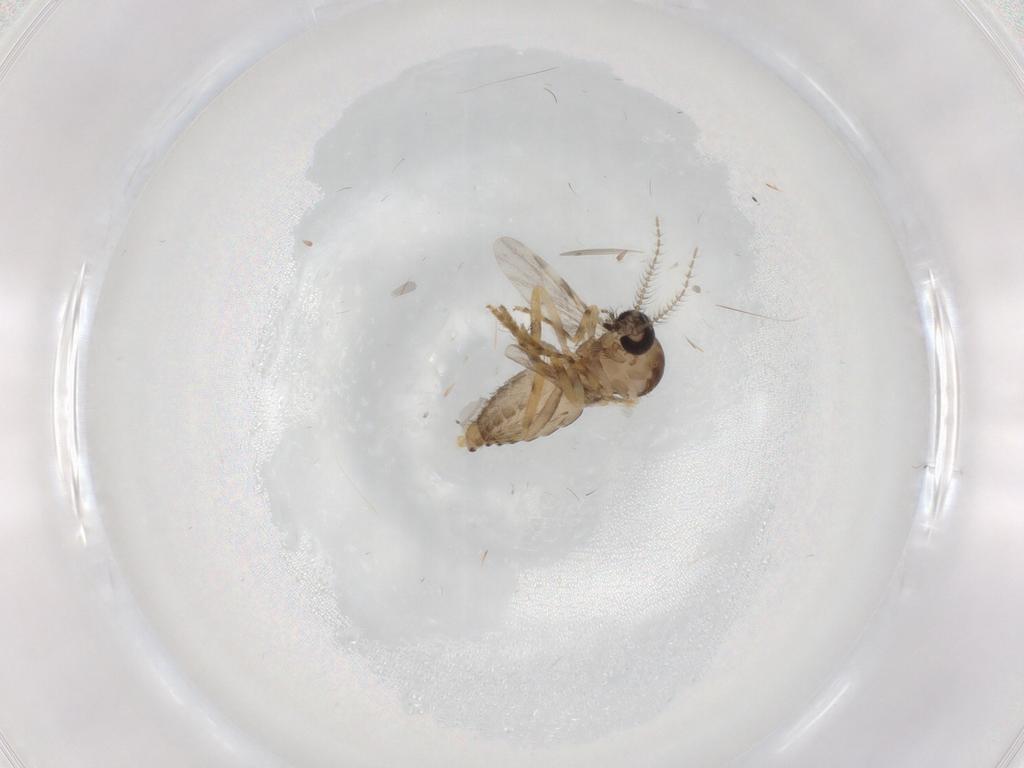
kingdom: Animalia
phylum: Arthropoda
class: Insecta
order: Diptera
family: Ceratopogonidae
